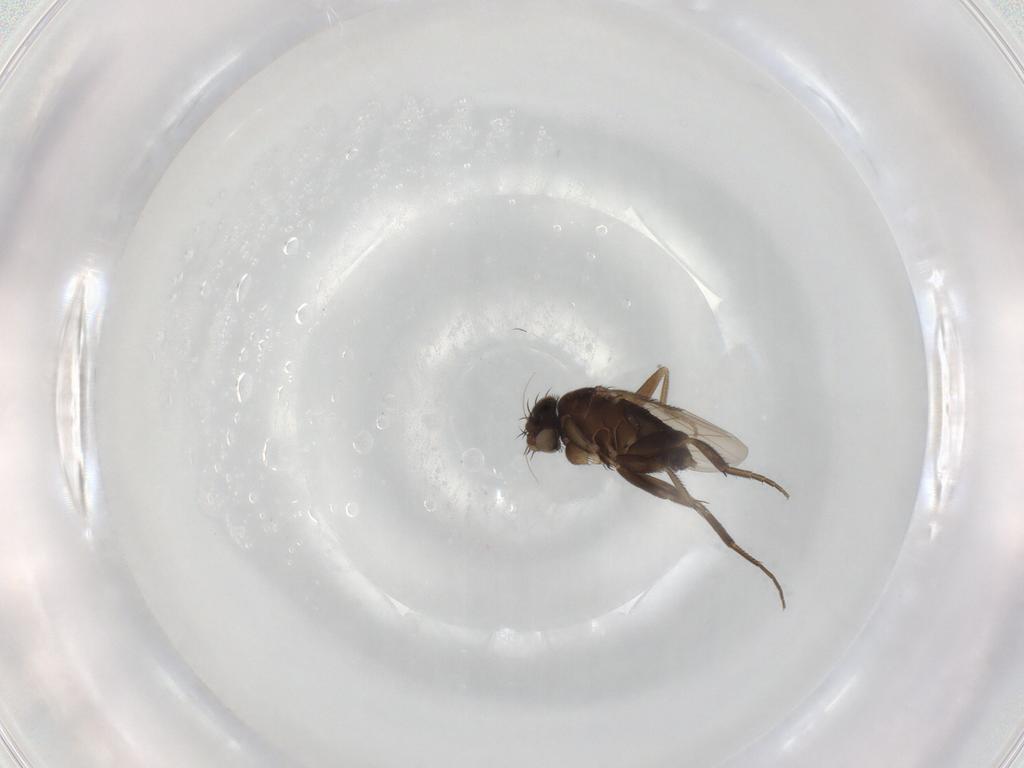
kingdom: Animalia
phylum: Arthropoda
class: Insecta
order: Diptera
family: Phoridae
